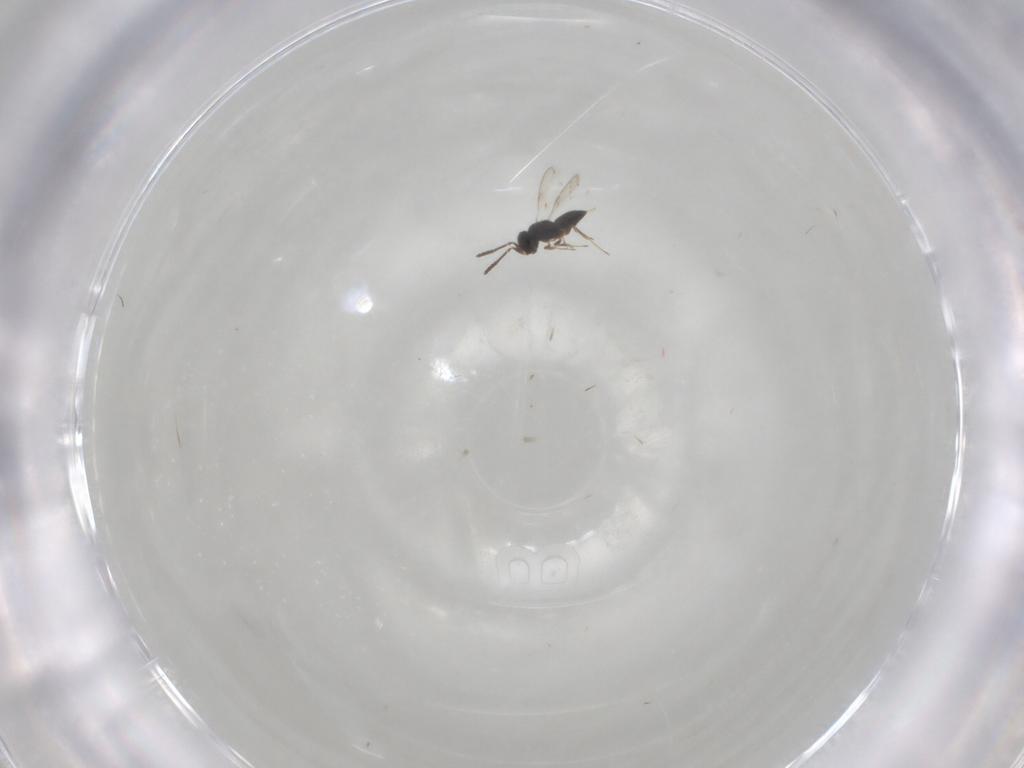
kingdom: Animalia
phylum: Arthropoda
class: Insecta
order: Hymenoptera
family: Scelionidae
